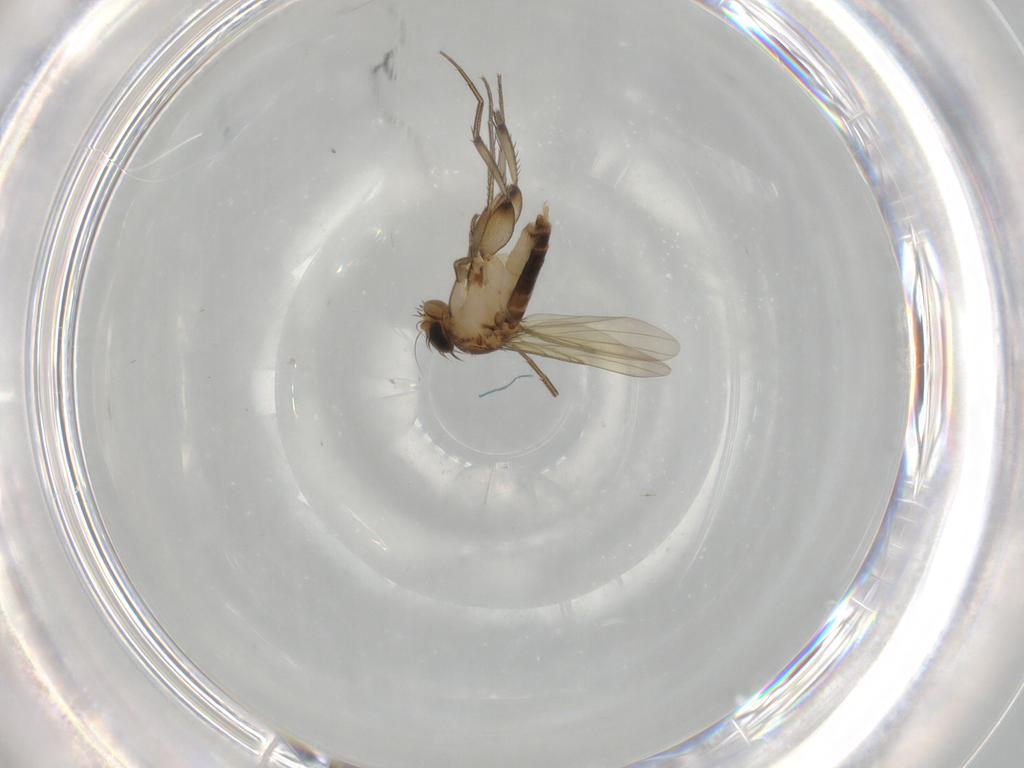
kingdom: Animalia
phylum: Arthropoda
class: Insecta
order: Diptera
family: Phoridae
